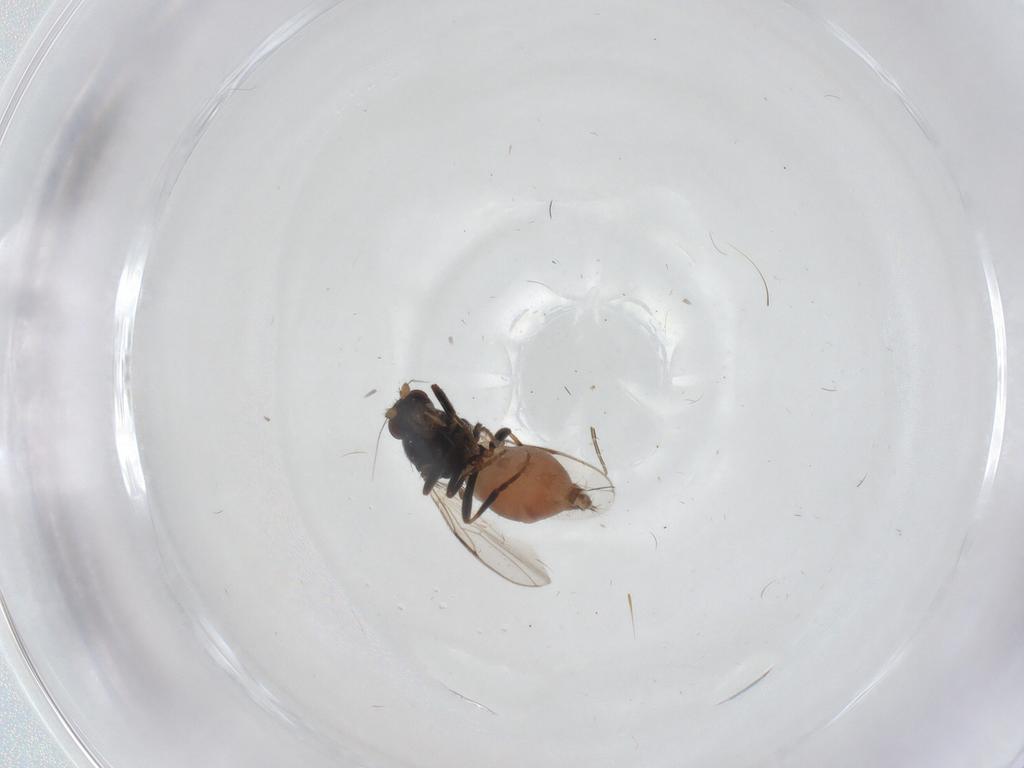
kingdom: Animalia
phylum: Arthropoda
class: Insecta
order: Diptera
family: Sphaeroceridae
